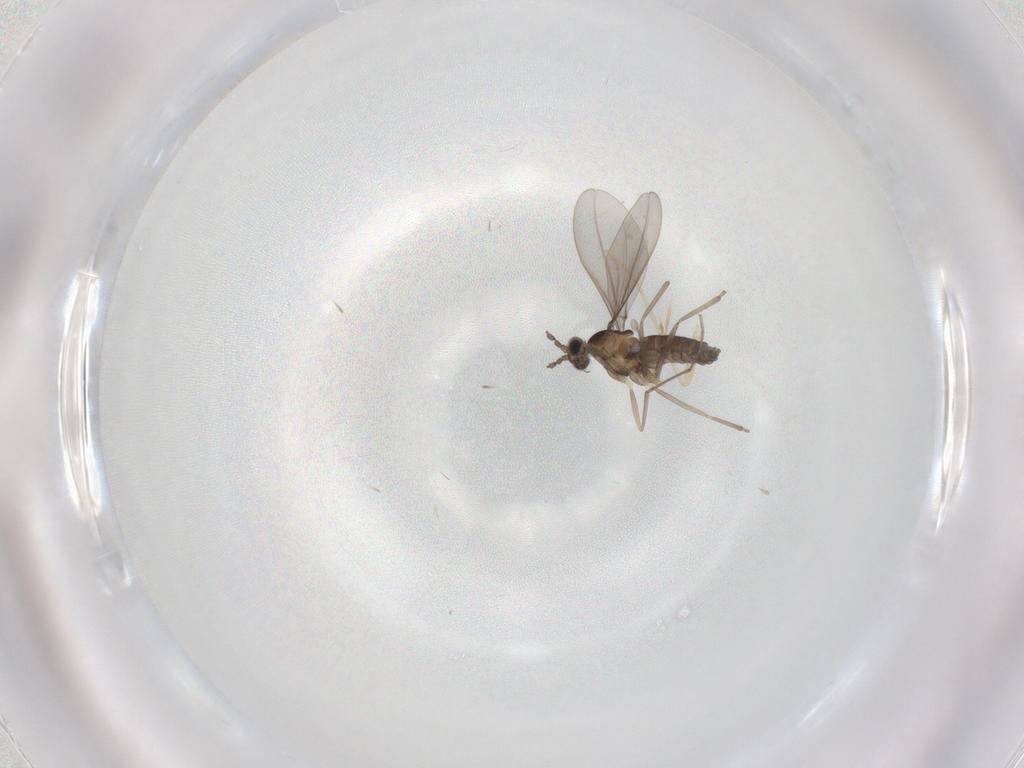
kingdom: Animalia
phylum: Arthropoda
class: Insecta
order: Diptera
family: Cecidomyiidae
